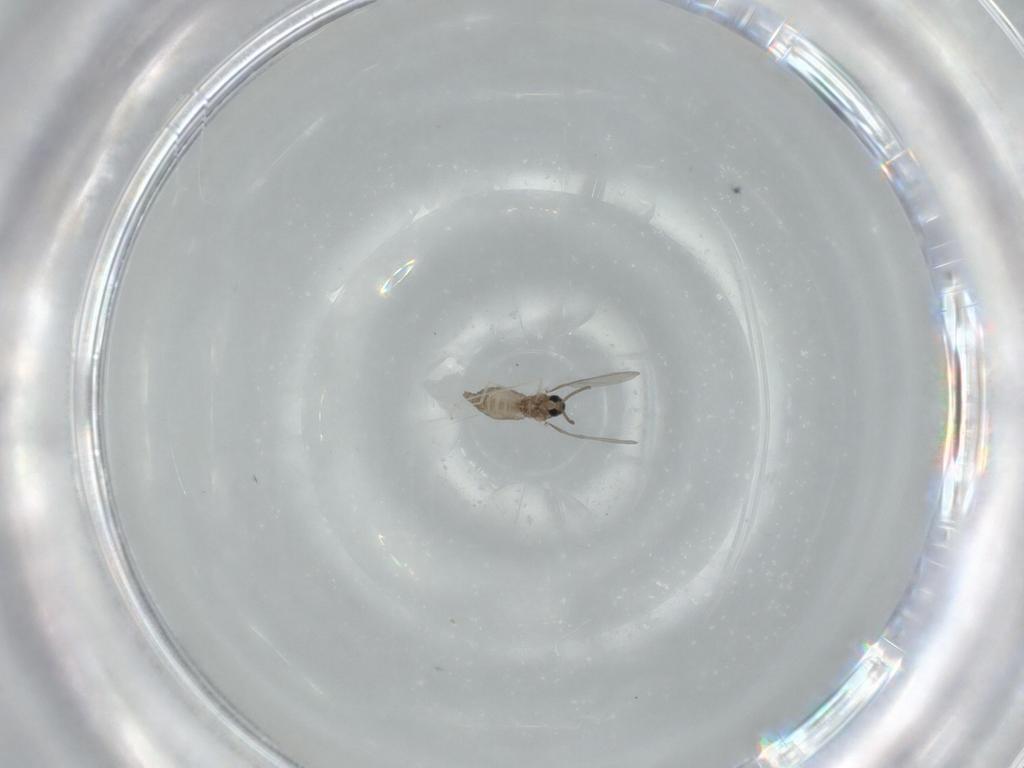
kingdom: Animalia
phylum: Arthropoda
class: Insecta
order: Diptera
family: Cecidomyiidae
